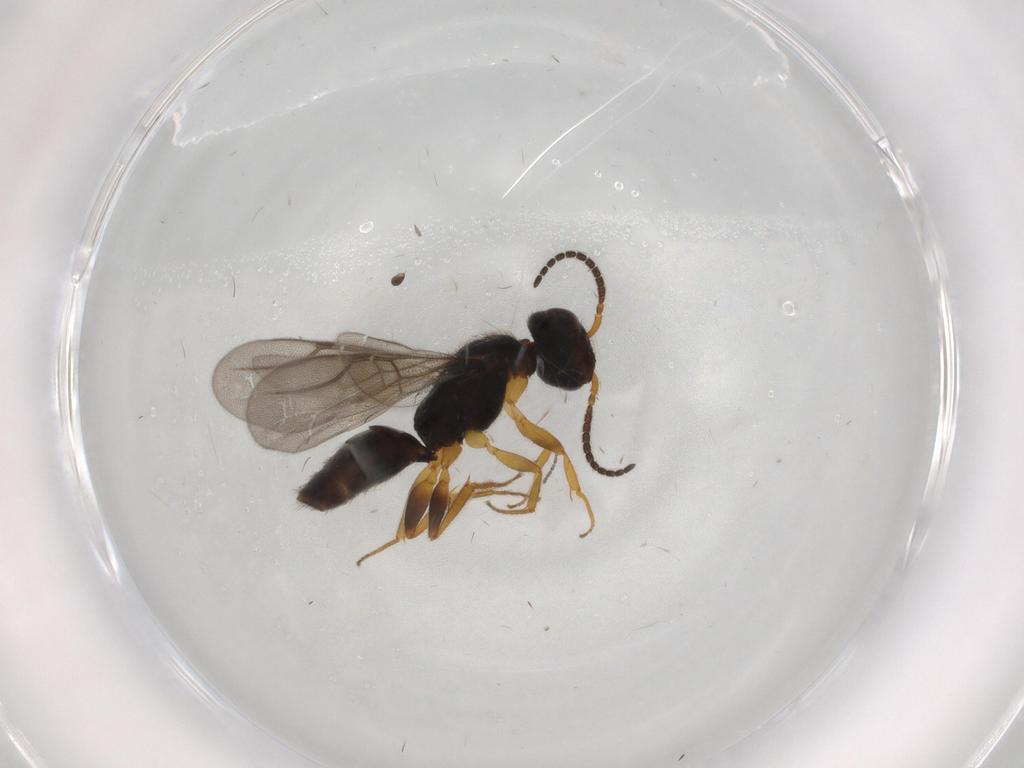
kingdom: Animalia
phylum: Arthropoda
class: Insecta
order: Hymenoptera
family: Bethylidae
